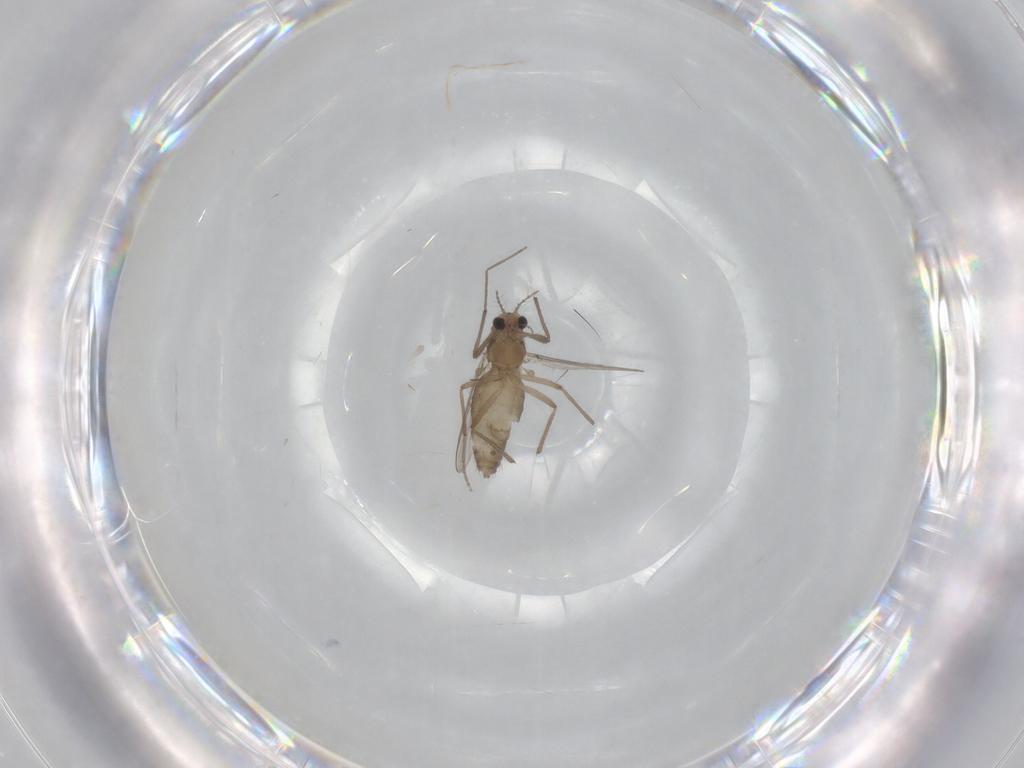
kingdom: Animalia
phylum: Arthropoda
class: Insecta
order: Diptera
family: Chironomidae
